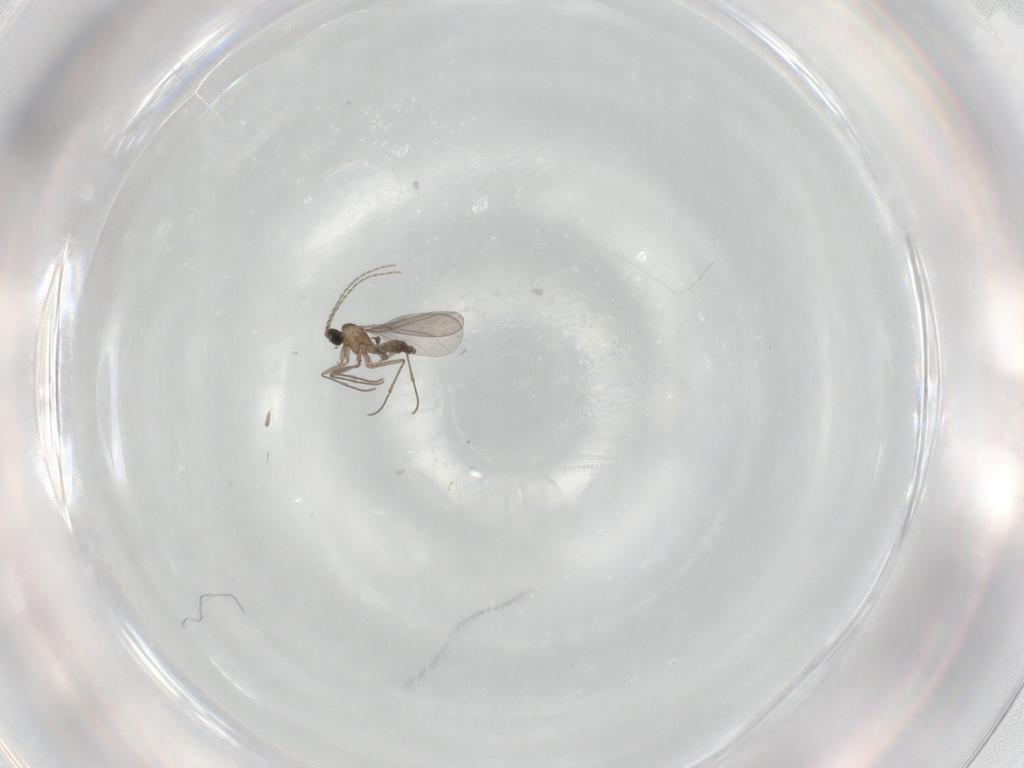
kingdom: Animalia
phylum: Arthropoda
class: Insecta
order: Diptera
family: Sciaridae
